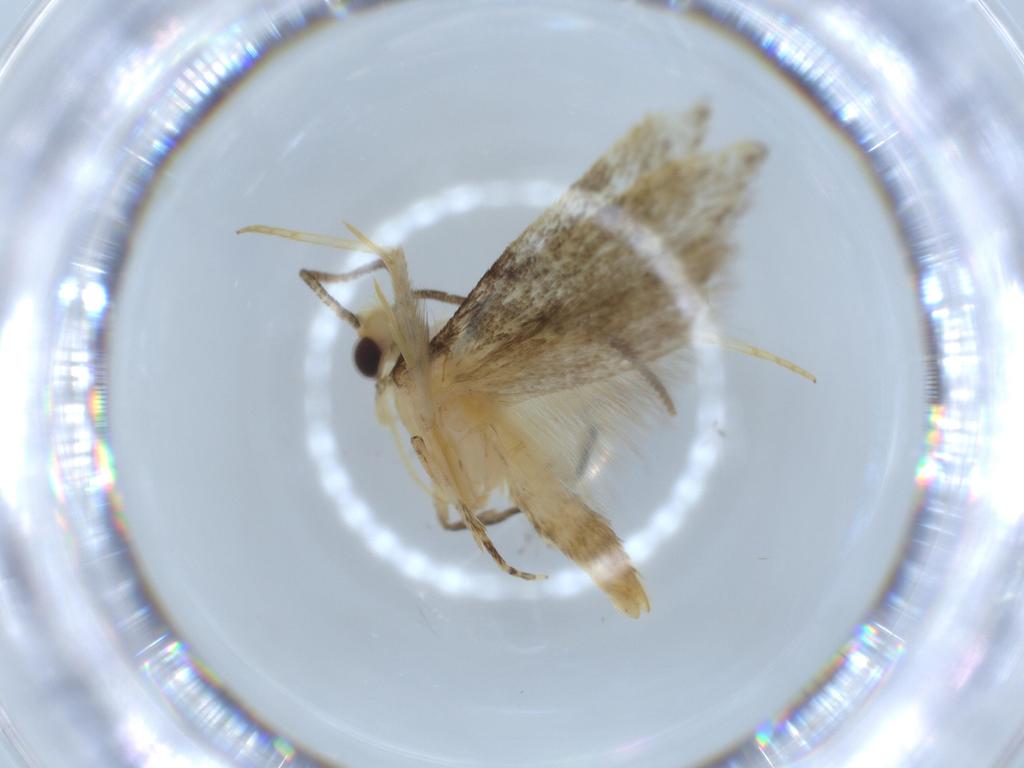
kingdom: Animalia
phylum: Arthropoda
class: Insecta
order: Lepidoptera
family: Autostichidae
